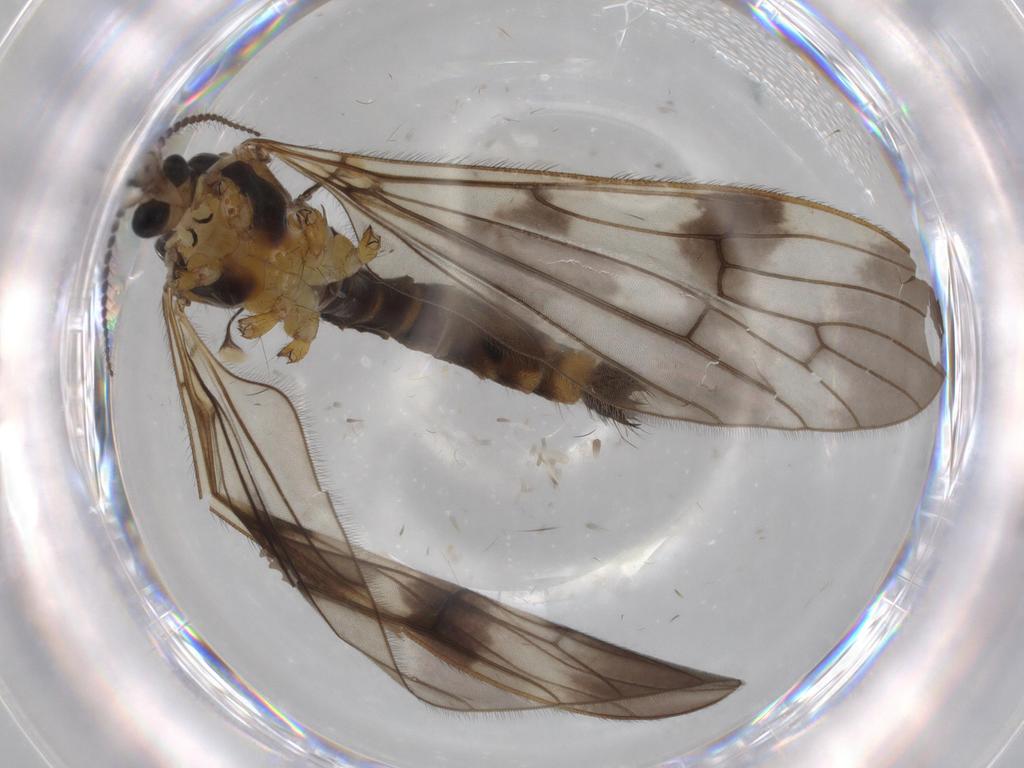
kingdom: Animalia
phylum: Arthropoda
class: Insecta
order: Diptera
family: Limoniidae
